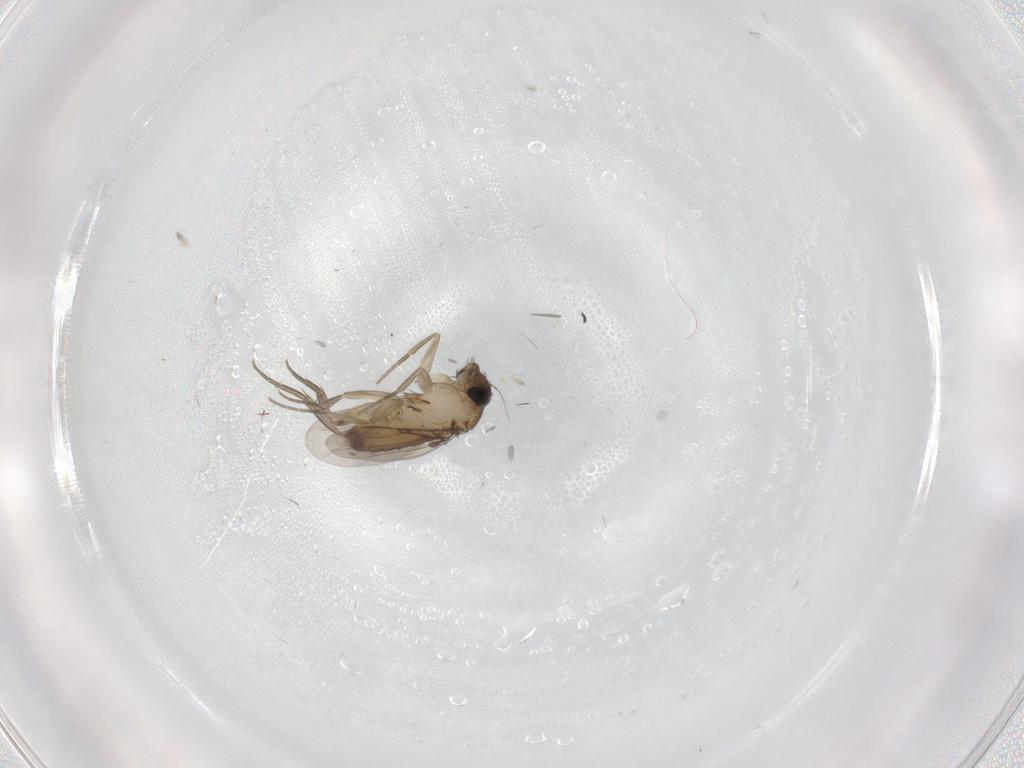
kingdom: Animalia
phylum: Arthropoda
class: Insecta
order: Diptera
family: Phoridae
